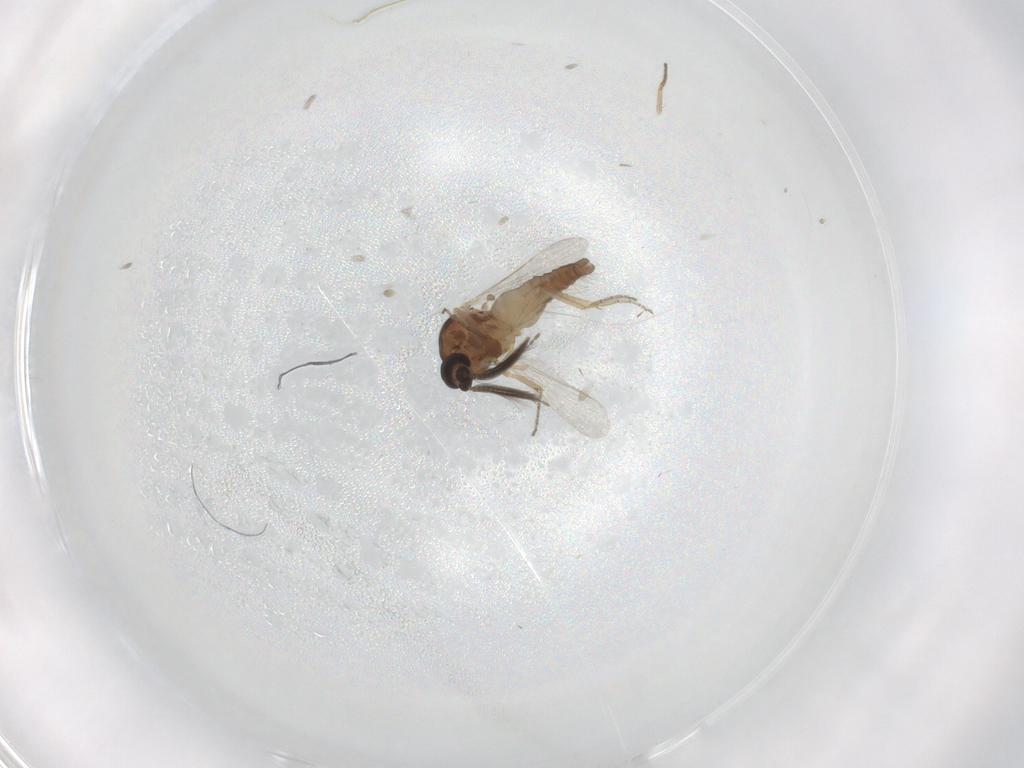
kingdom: Animalia
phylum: Arthropoda
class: Insecta
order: Diptera
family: Ceratopogonidae
